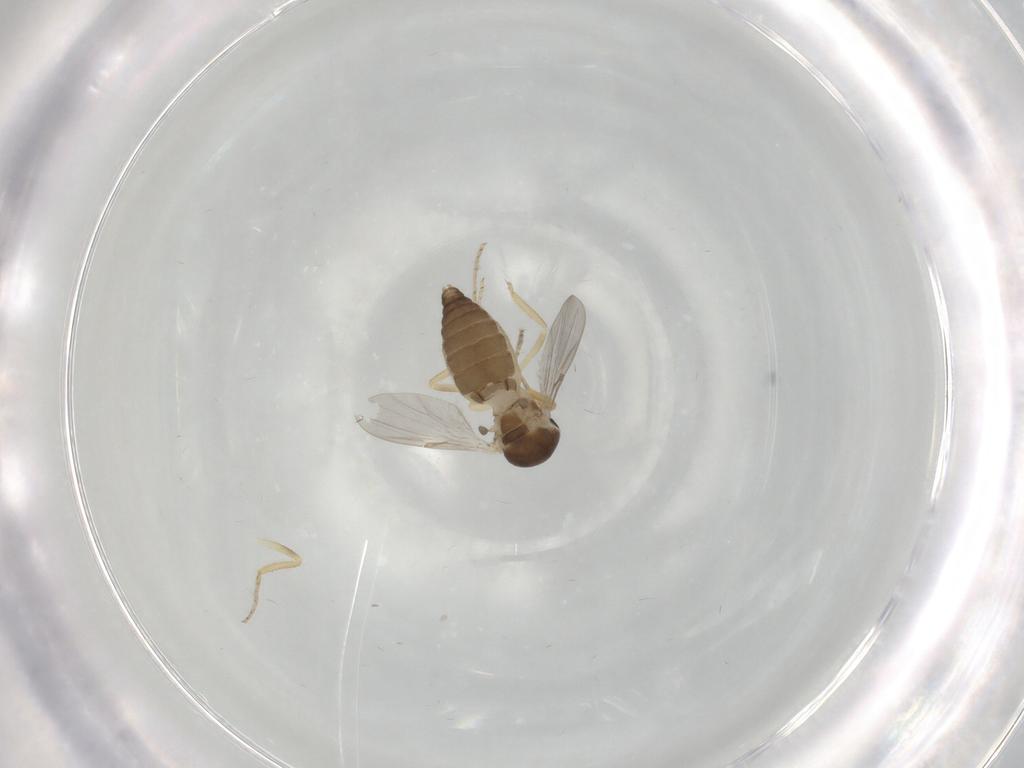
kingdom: Animalia
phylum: Arthropoda
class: Insecta
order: Diptera
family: Ceratopogonidae
